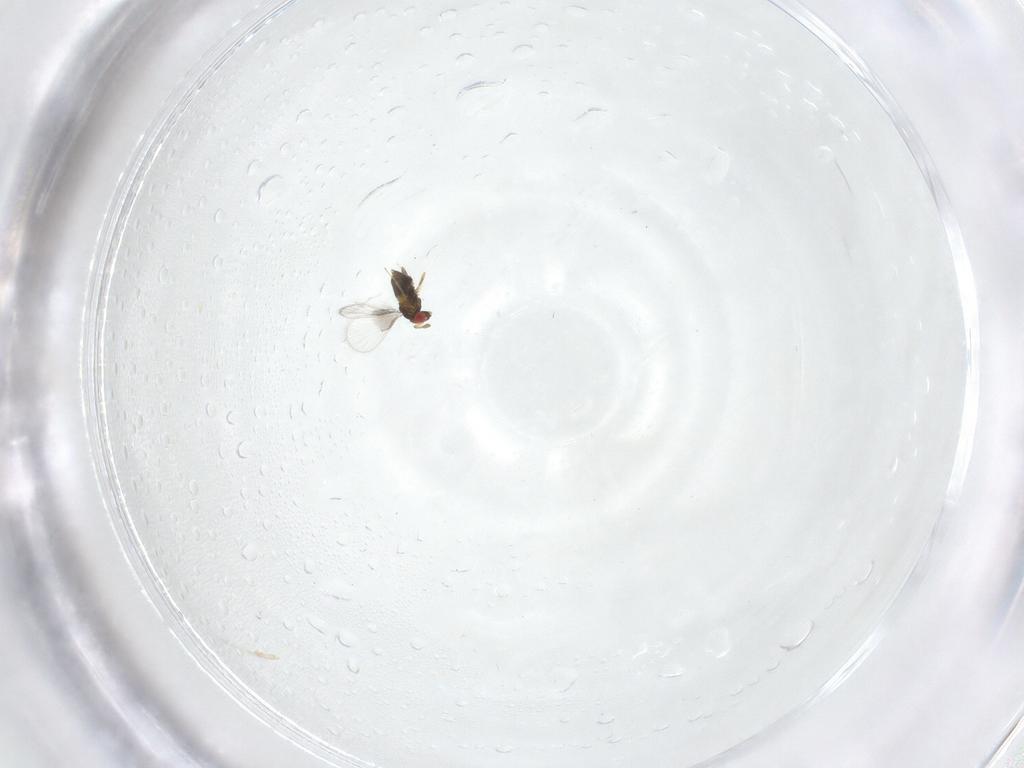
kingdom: Animalia
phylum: Arthropoda
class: Insecta
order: Hymenoptera
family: Trichogrammatidae
